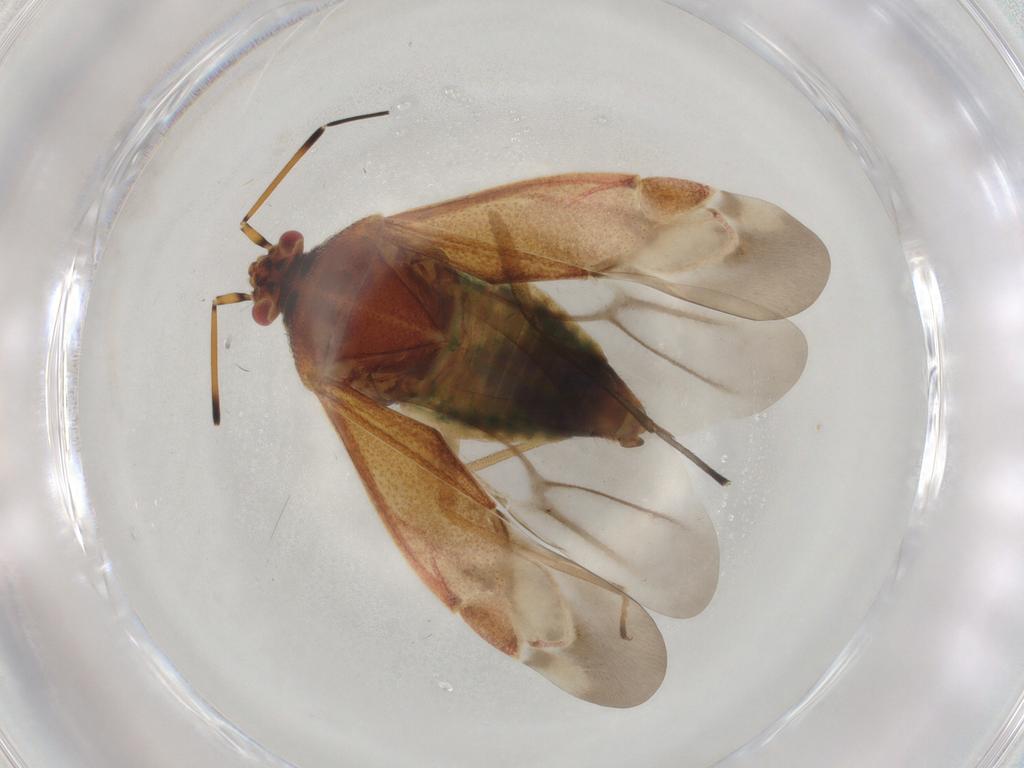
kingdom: Animalia
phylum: Arthropoda
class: Insecta
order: Hemiptera
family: Miridae
